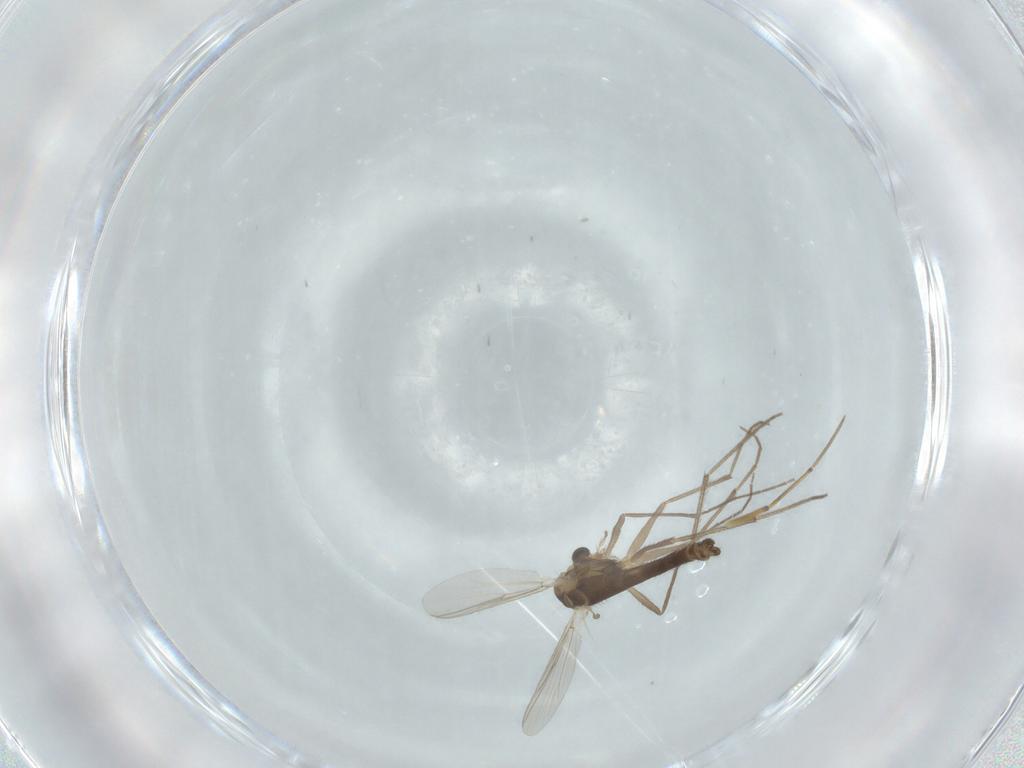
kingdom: Animalia
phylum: Arthropoda
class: Insecta
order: Diptera
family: Chironomidae
